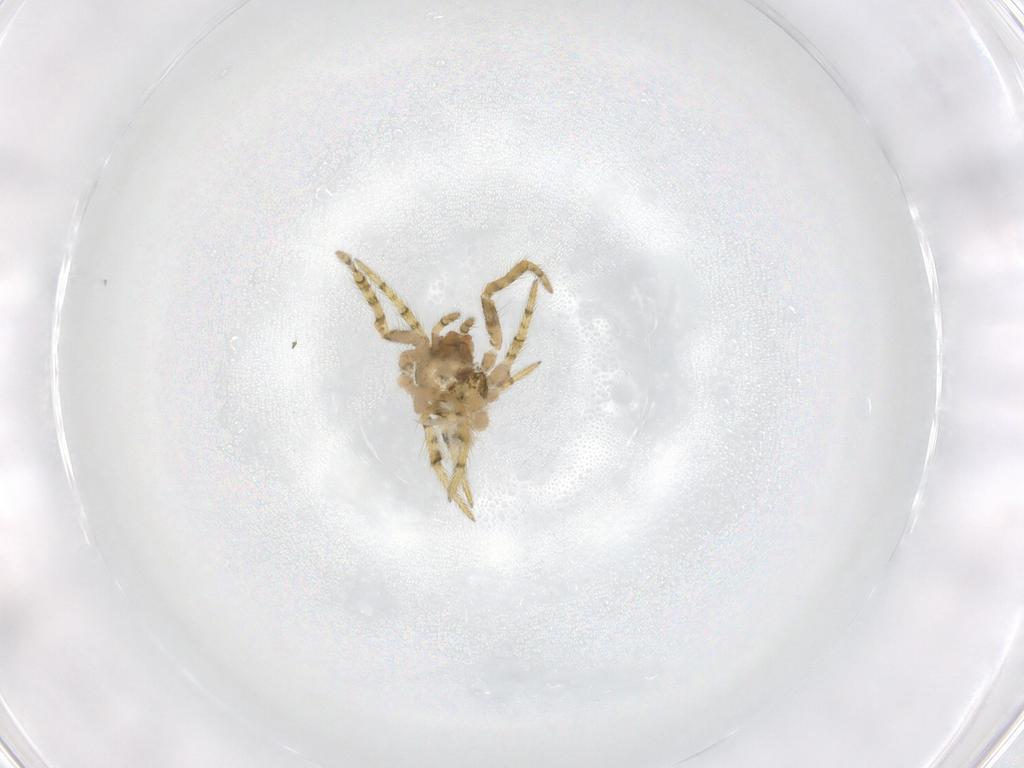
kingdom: Animalia
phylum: Arthropoda
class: Arachnida
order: Araneae
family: Theridiidae
